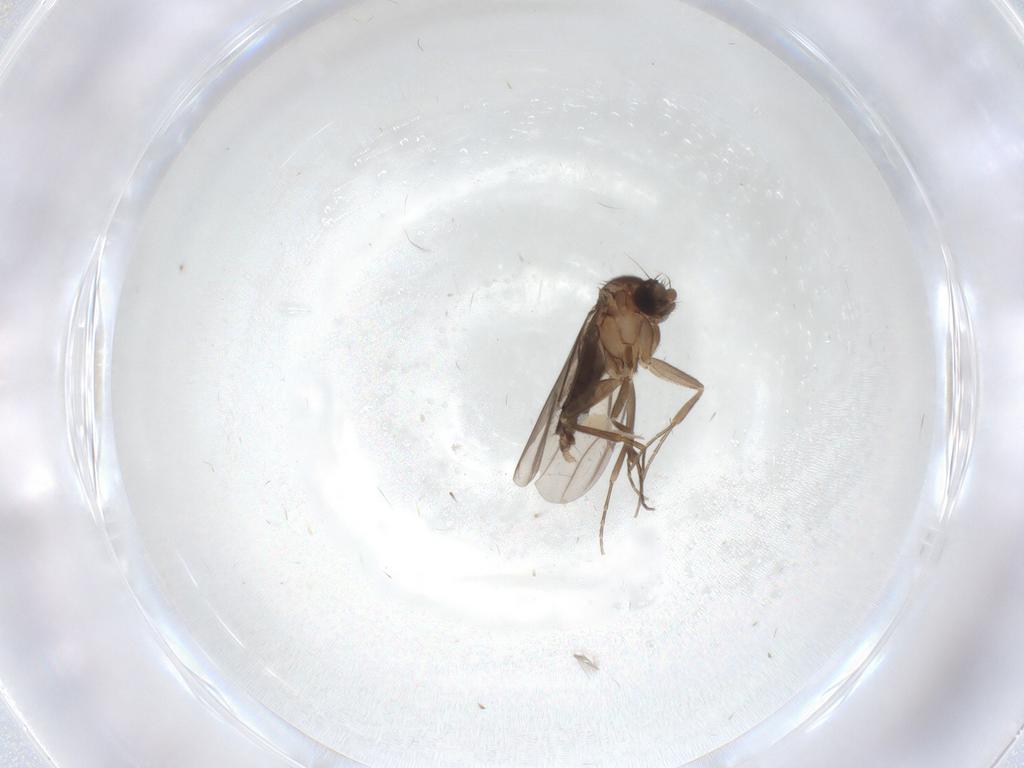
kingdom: Animalia
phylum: Arthropoda
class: Insecta
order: Diptera
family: Sciaridae
